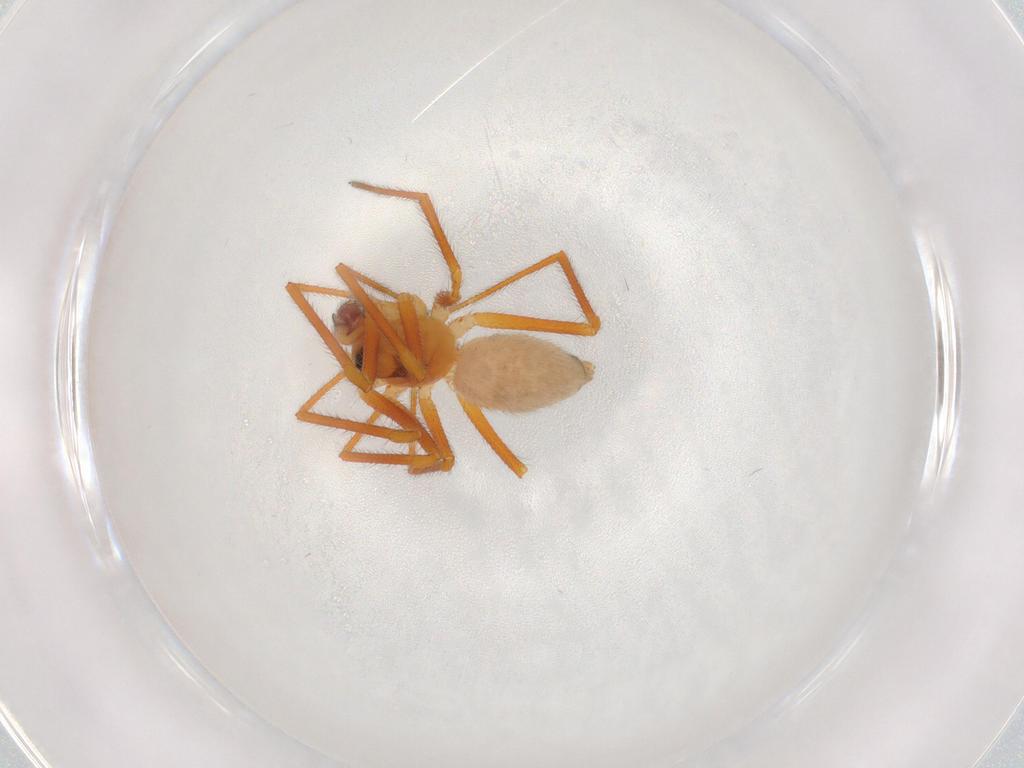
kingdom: Animalia
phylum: Arthropoda
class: Arachnida
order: Araneae
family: Linyphiidae
